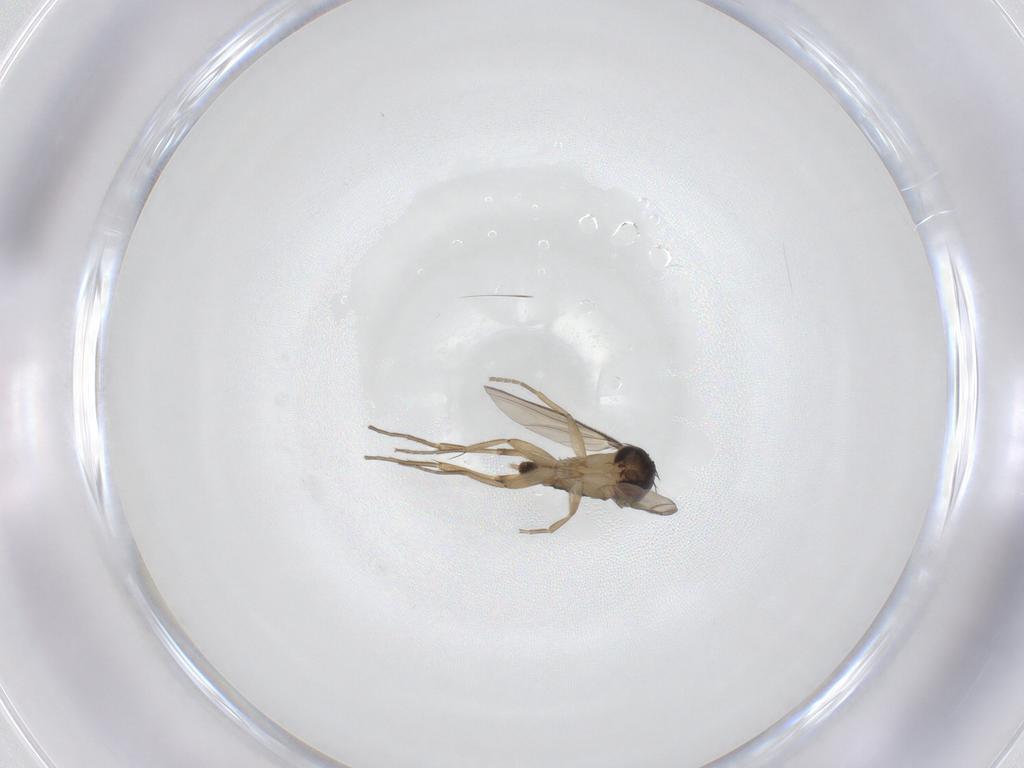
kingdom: Animalia
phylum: Arthropoda
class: Insecta
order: Diptera
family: Phoridae
